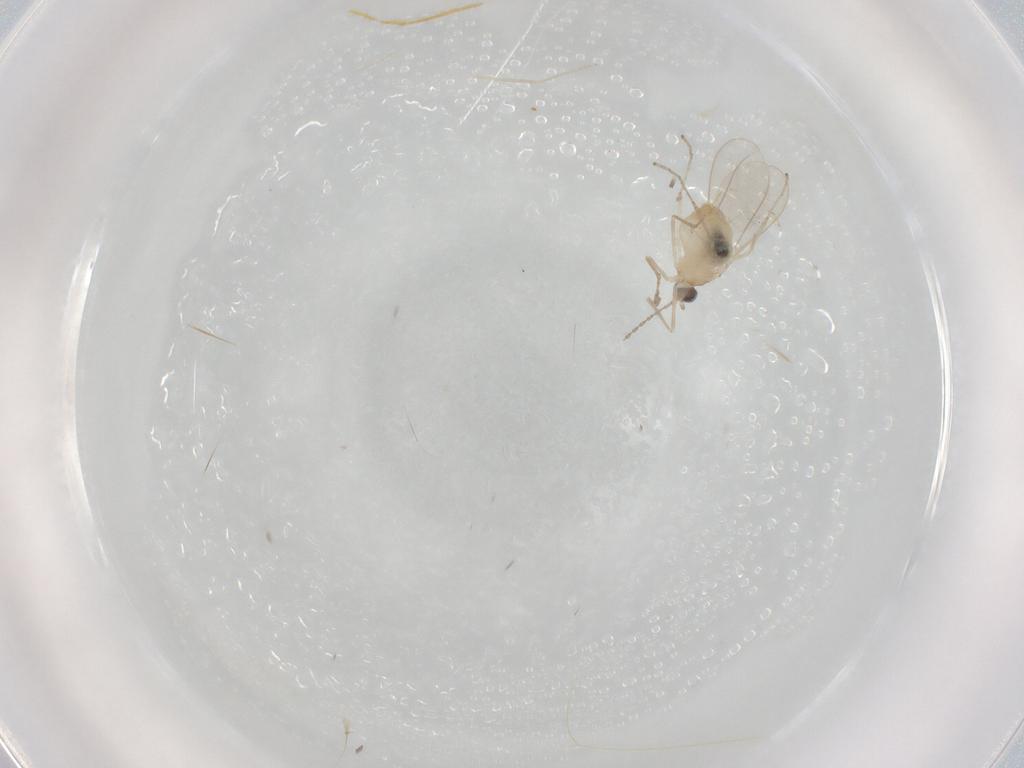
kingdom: Animalia
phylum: Arthropoda
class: Insecta
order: Diptera
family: Cecidomyiidae
